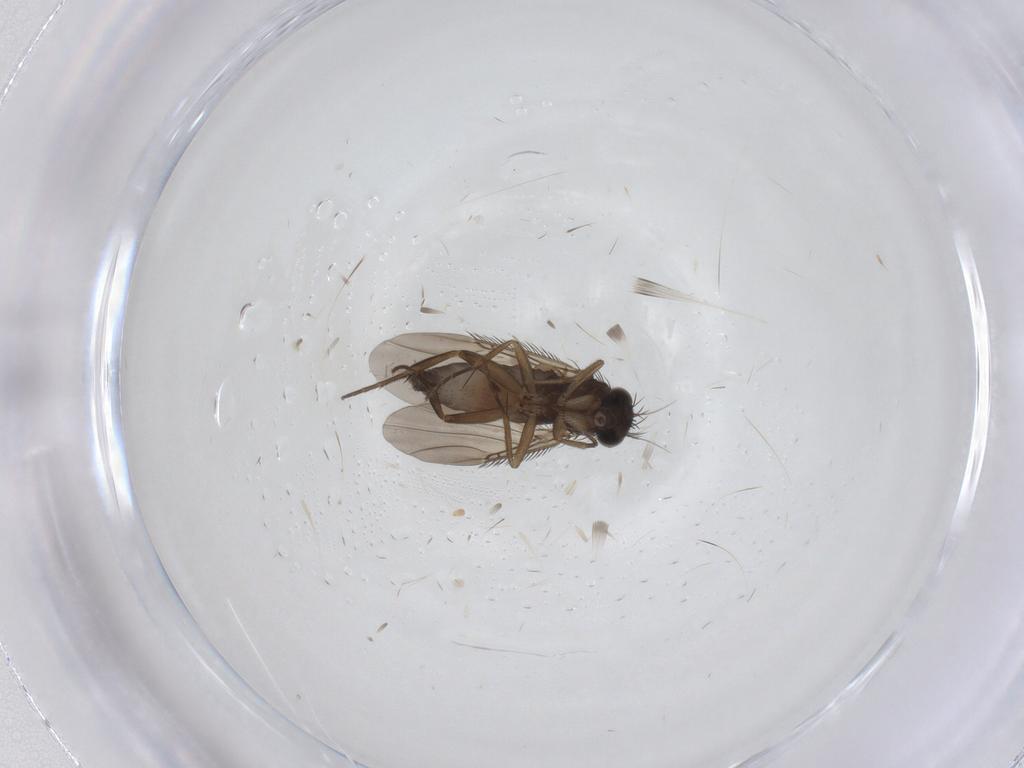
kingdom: Animalia
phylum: Arthropoda
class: Insecta
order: Diptera
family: Phoridae
